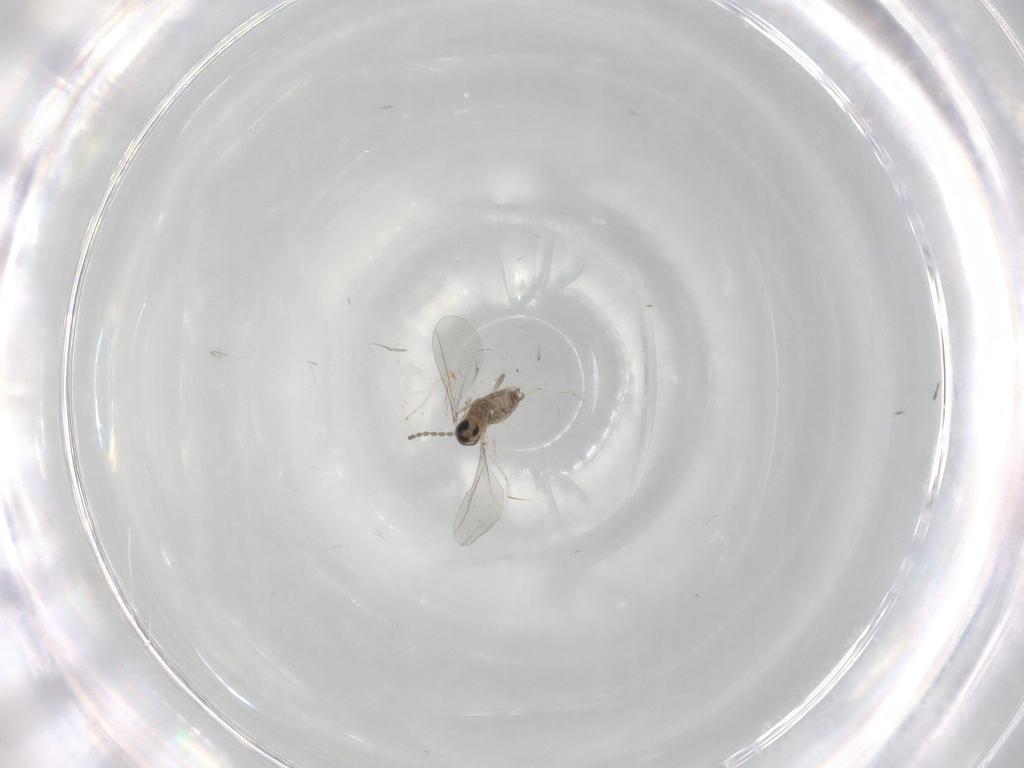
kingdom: Animalia
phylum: Arthropoda
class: Insecta
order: Diptera
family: Cecidomyiidae
